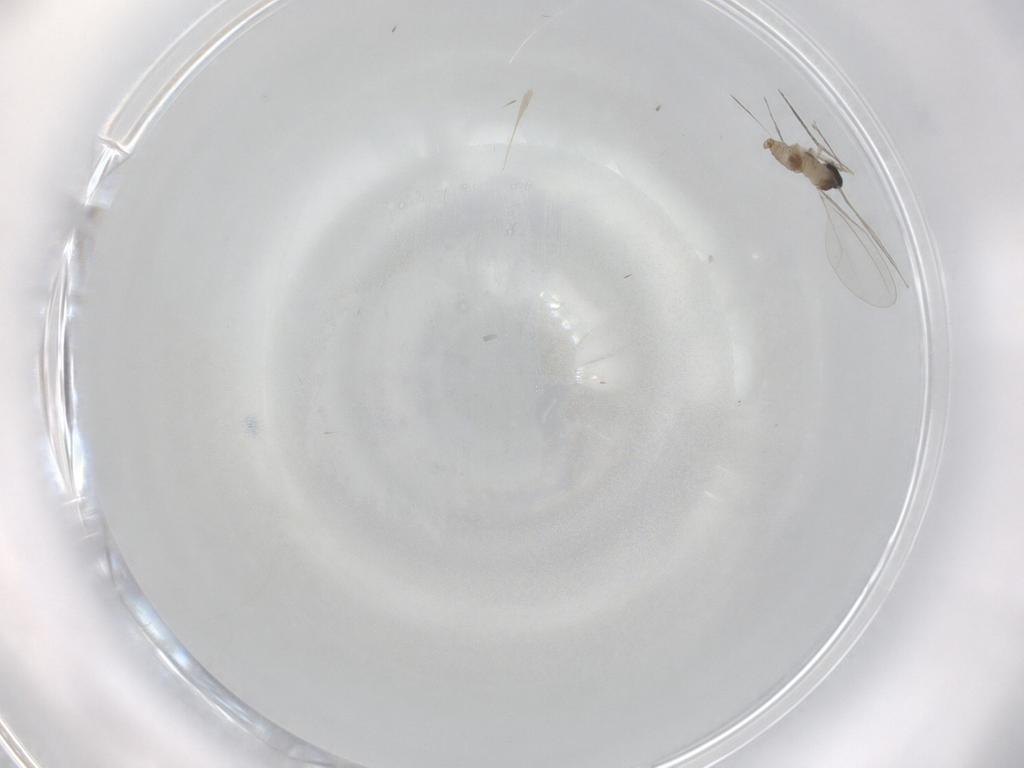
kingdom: Animalia
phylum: Arthropoda
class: Insecta
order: Diptera
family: Cecidomyiidae
